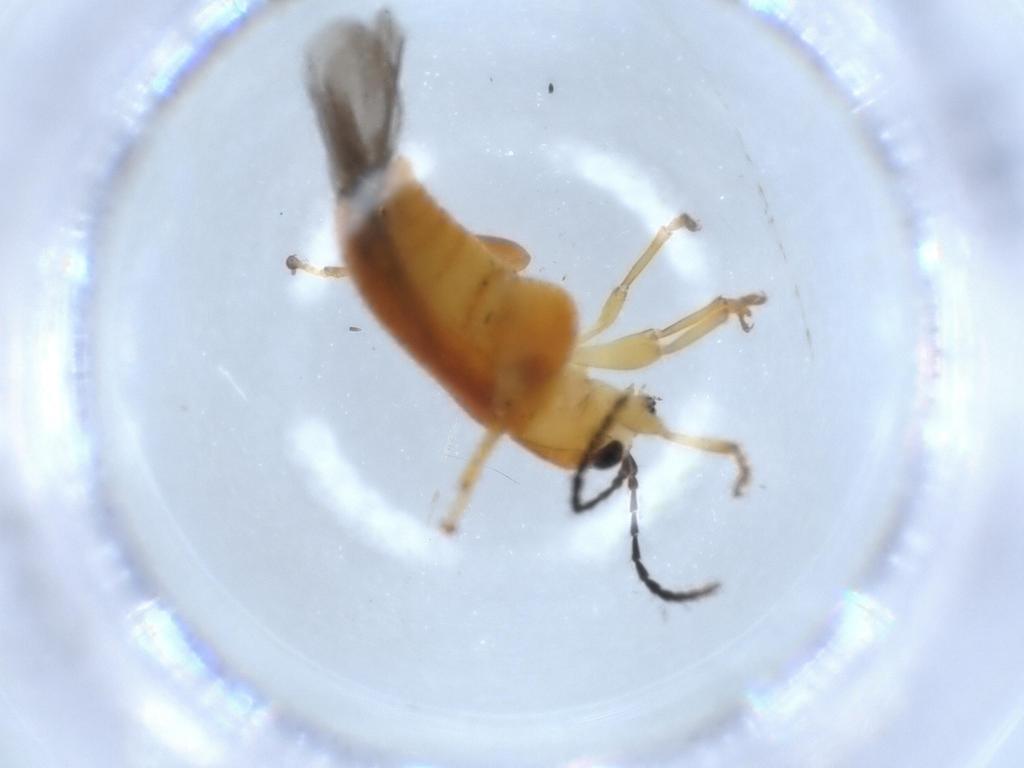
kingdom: Animalia
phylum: Arthropoda
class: Insecta
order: Coleoptera
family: Chrysomelidae
